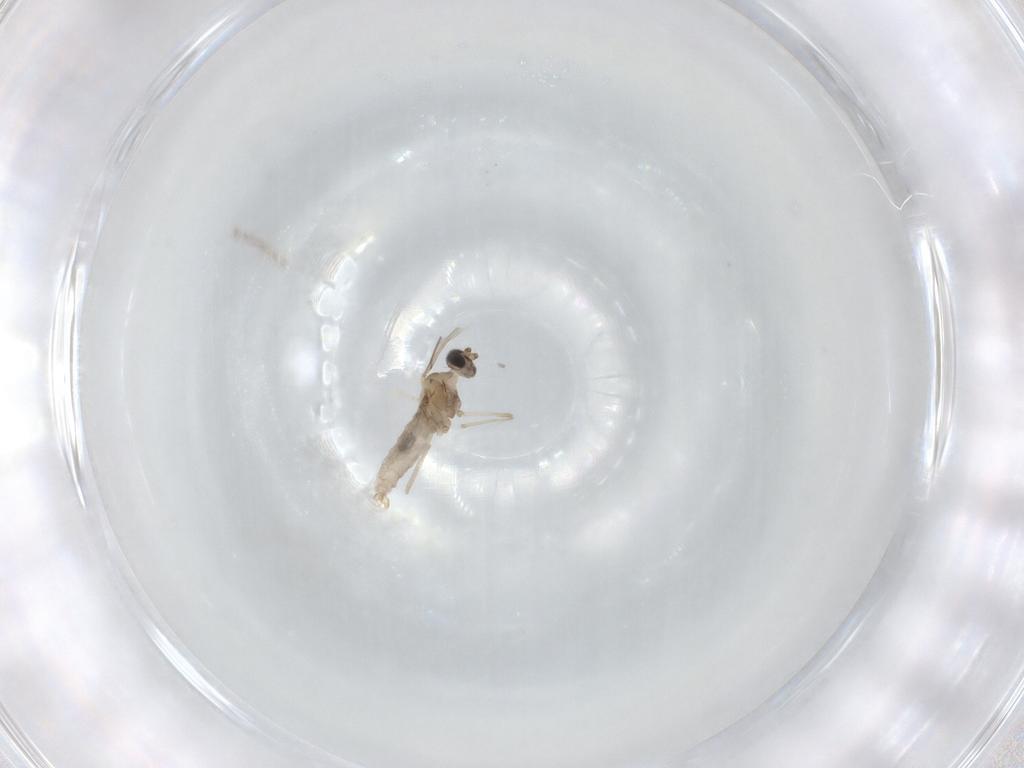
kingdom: Animalia
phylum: Arthropoda
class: Insecta
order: Diptera
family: Cecidomyiidae
